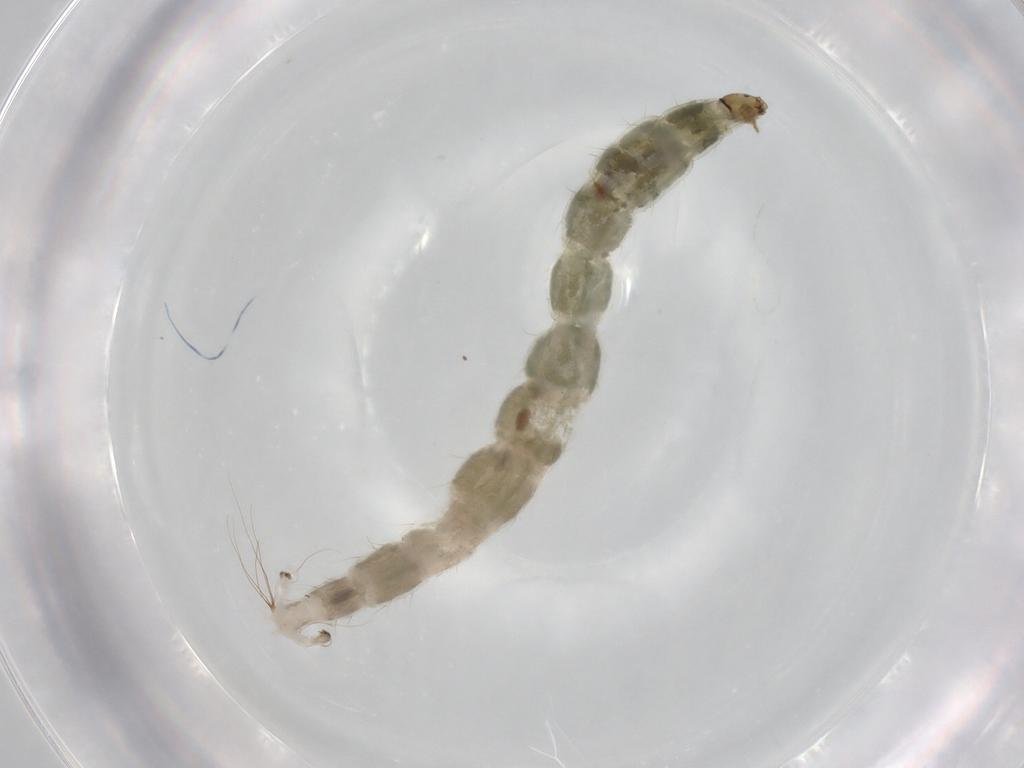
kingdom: Animalia
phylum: Arthropoda
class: Insecta
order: Diptera
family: Chironomidae
